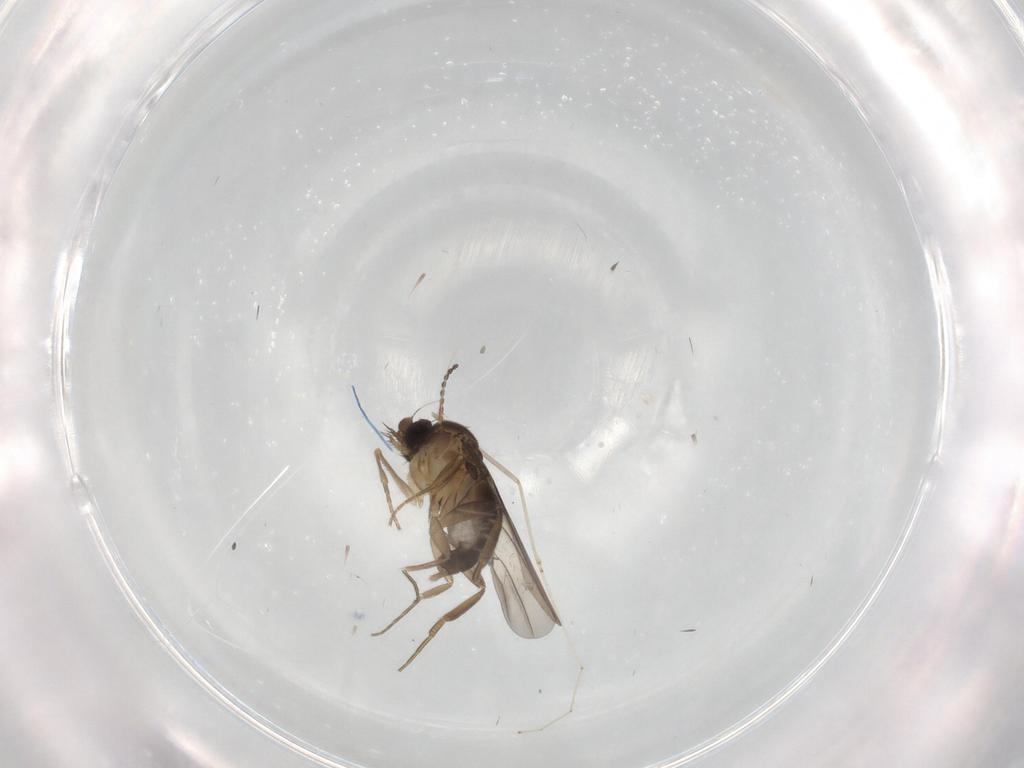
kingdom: Animalia
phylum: Arthropoda
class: Insecta
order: Diptera
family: Phoridae
